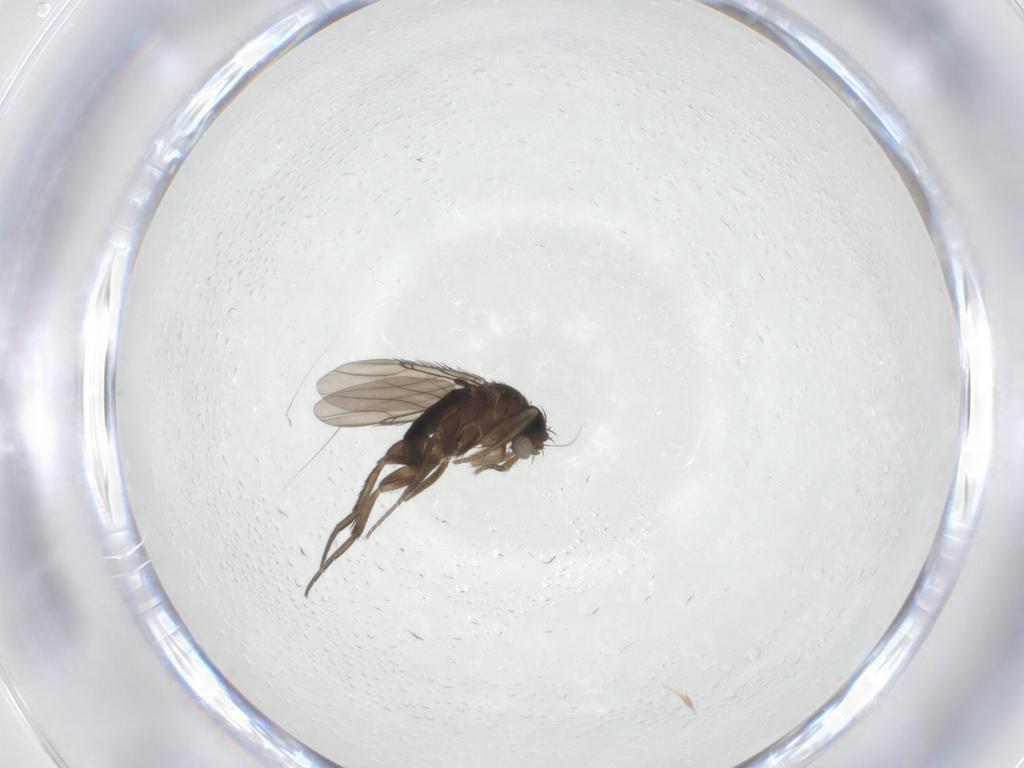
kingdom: Animalia
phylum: Arthropoda
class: Insecta
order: Diptera
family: Phoridae
